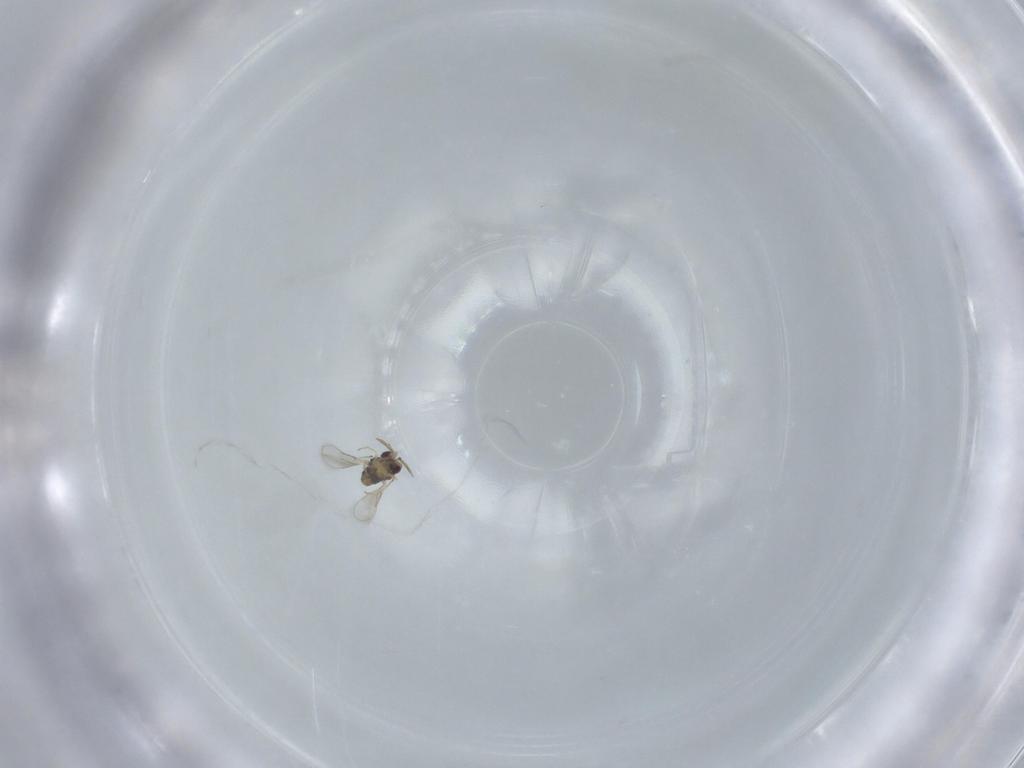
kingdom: Animalia
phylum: Arthropoda
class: Insecta
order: Hymenoptera
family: Aphelinidae
